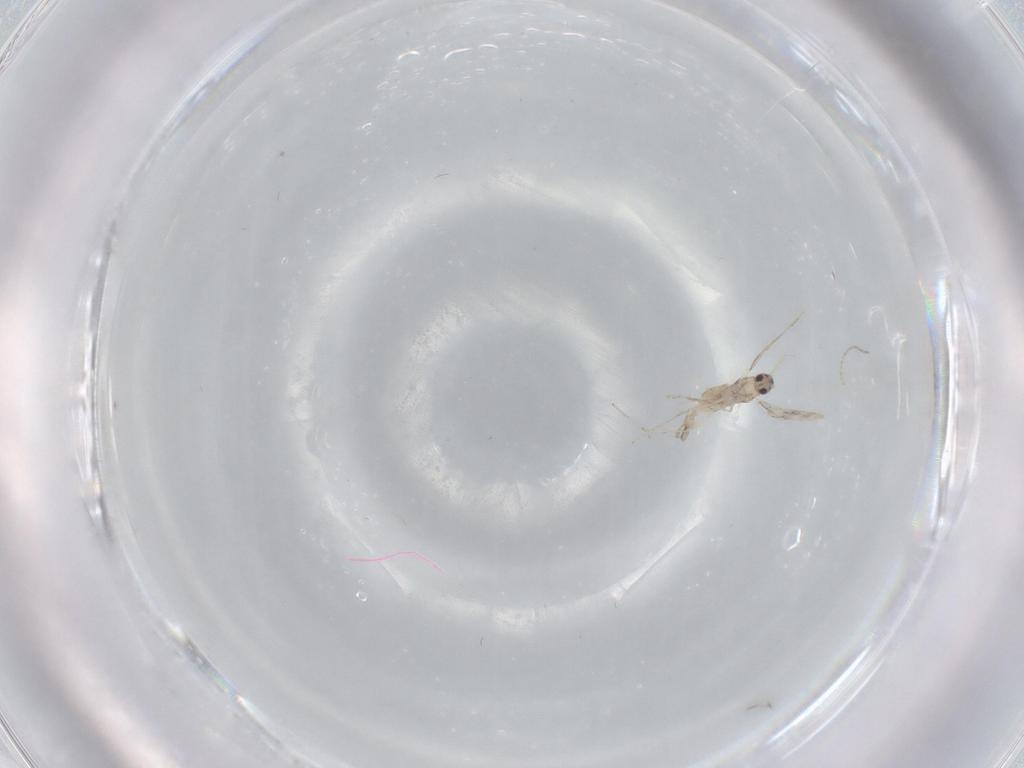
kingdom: Animalia
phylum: Arthropoda
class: Insecta
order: Diptera
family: Cecidomyiidae
